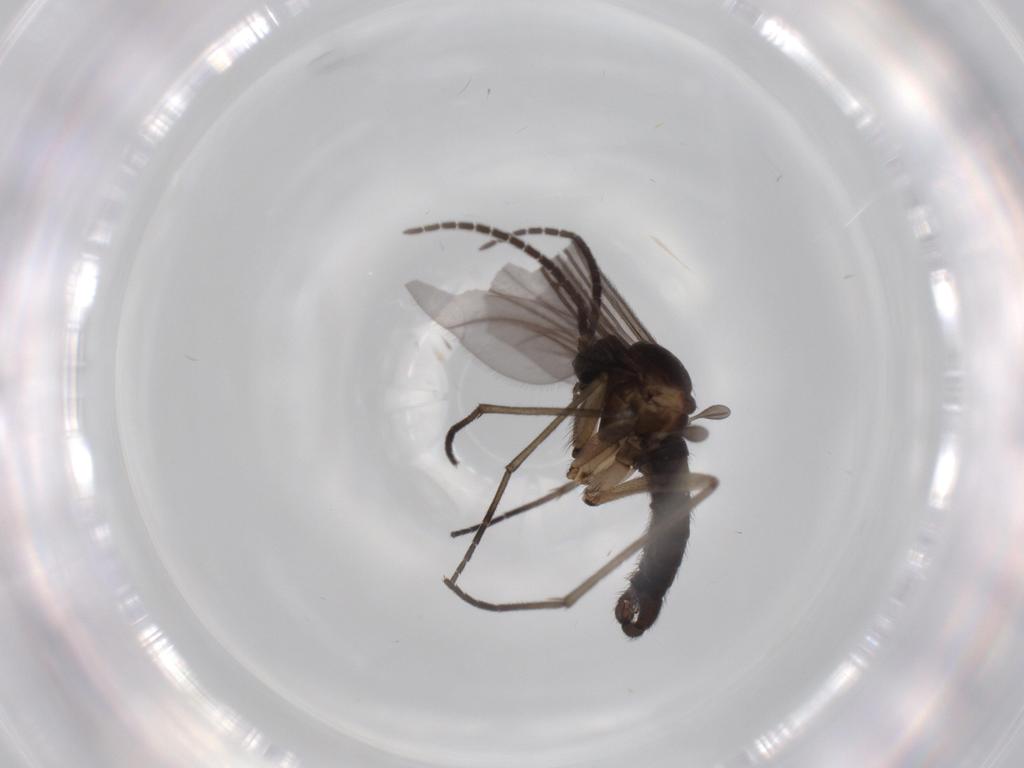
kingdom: Animalia
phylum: Arthropoda
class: Insecta
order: Diptera
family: Sciaridae
